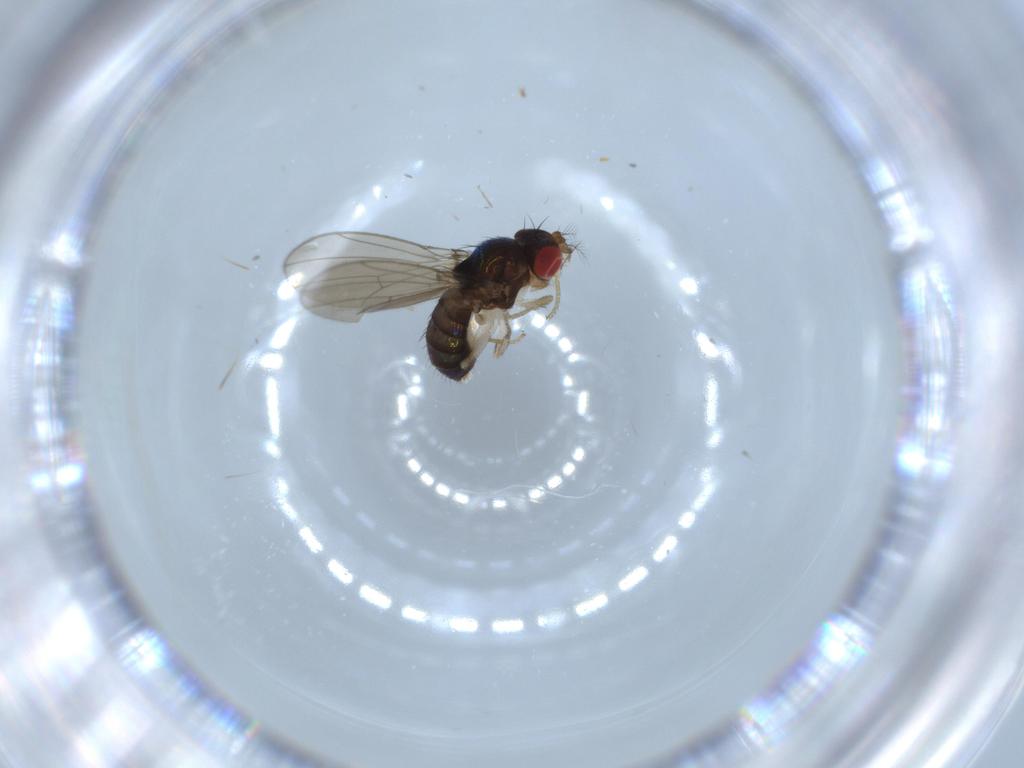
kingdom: Animalia
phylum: Arthropoda
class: Insecta
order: Diptera
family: Drosophilidae
